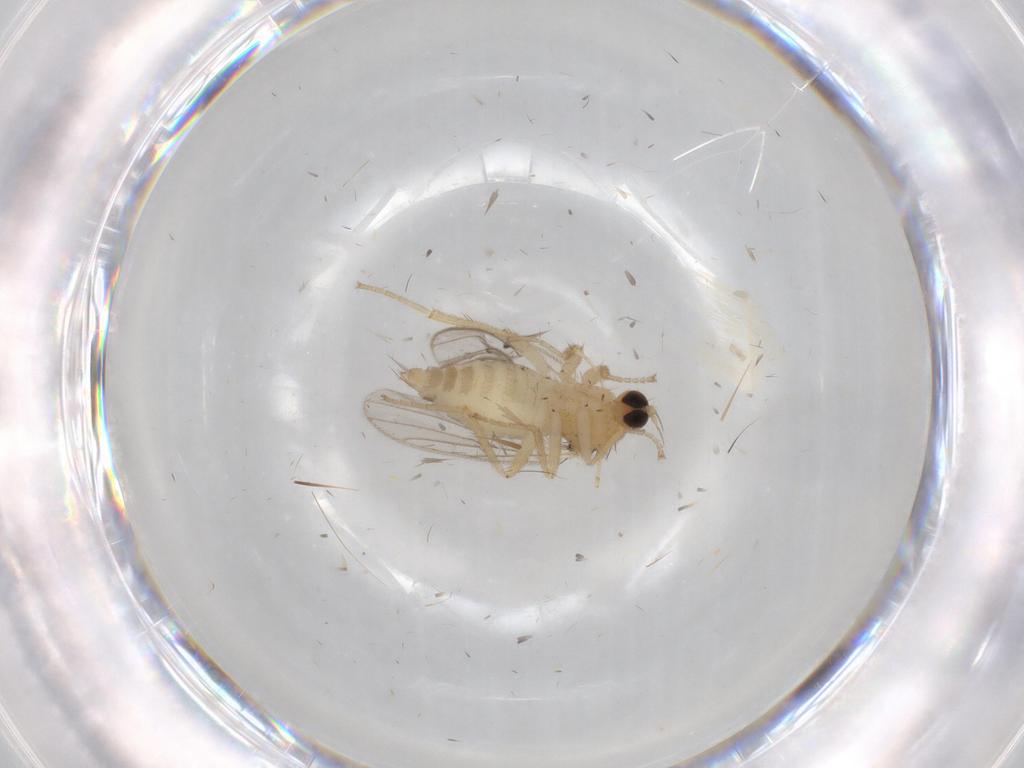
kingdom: Animalia
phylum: Arthropoda
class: Insecta
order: Diptera
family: Hybotidae
